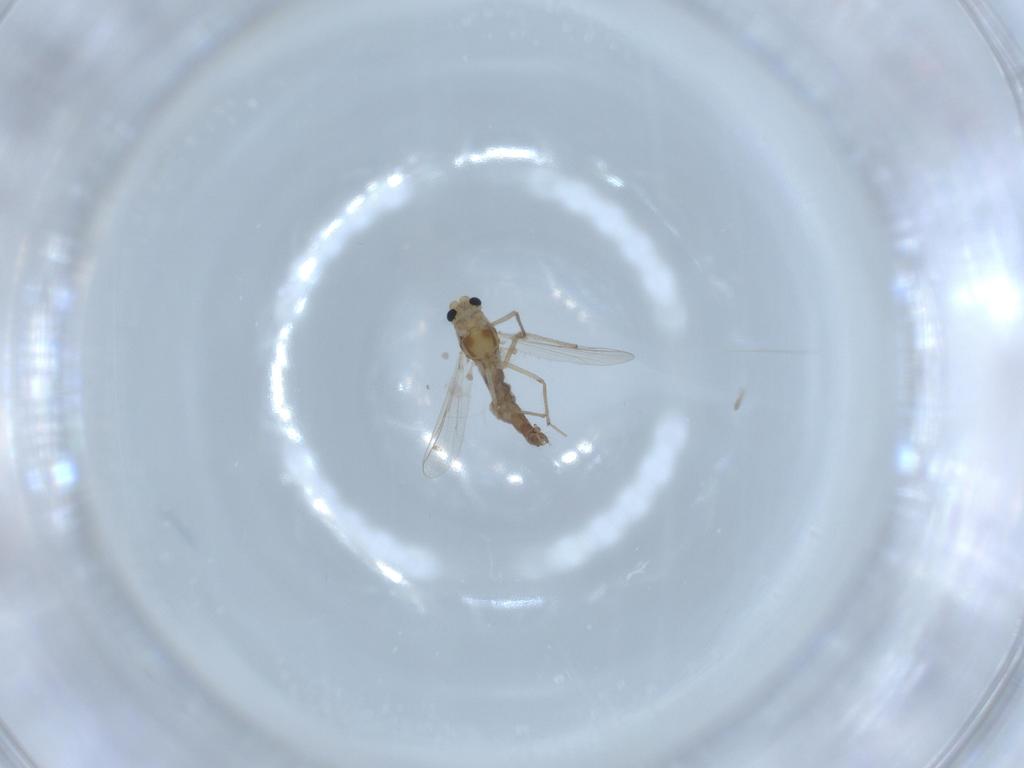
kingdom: Animalia
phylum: Arthropoda
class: Insecta
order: Diptera
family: Chironomidae
